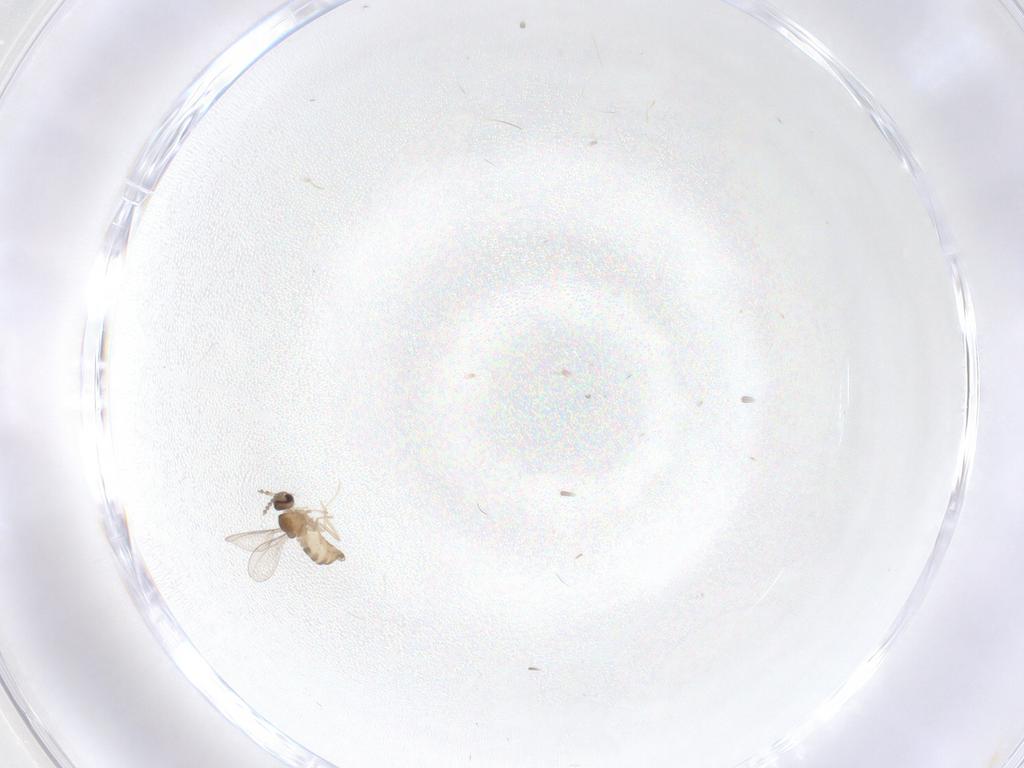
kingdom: Animalia
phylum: Arthropoda
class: Insecta
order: Diptera
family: Cecidomyiidae
